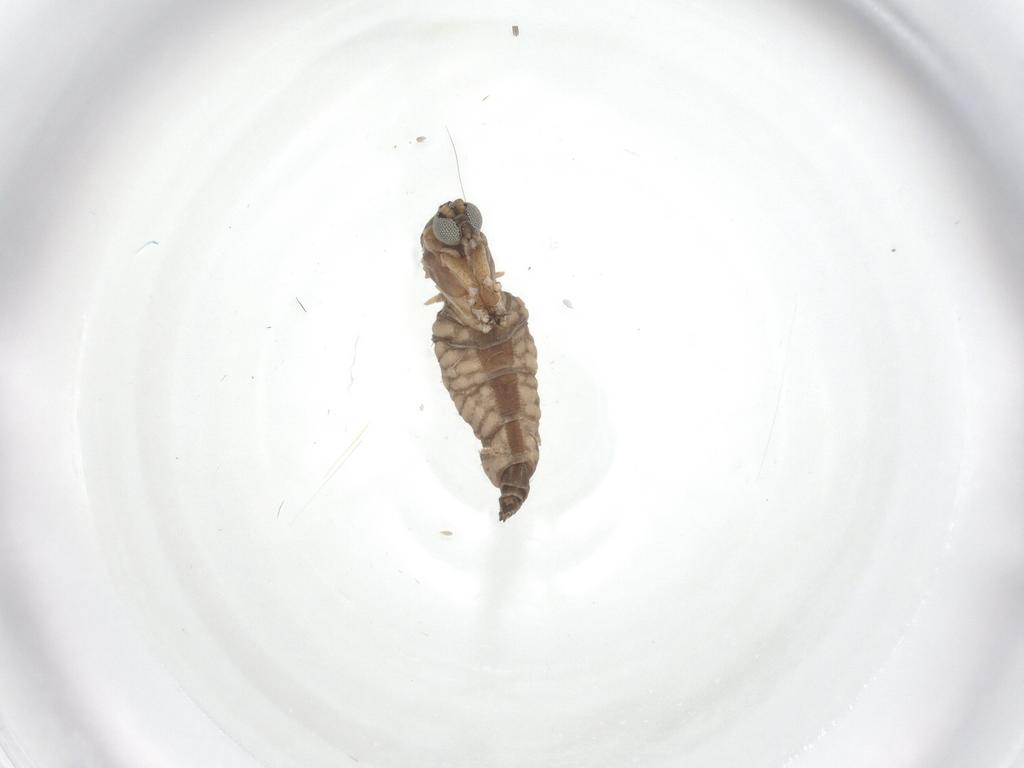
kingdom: Animalia
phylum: Arthropoda
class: Insecta
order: Diptera
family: Sciaridae
